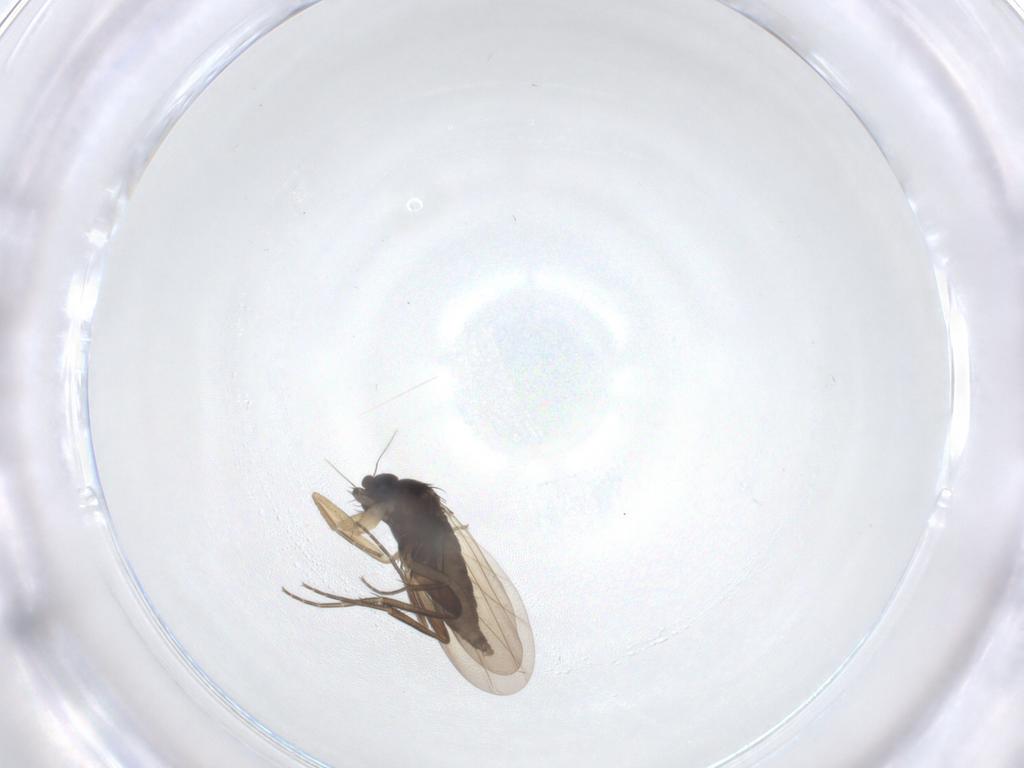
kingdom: Animalia
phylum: Arthropoda
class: Insecta
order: Diptera
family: Phoridae
